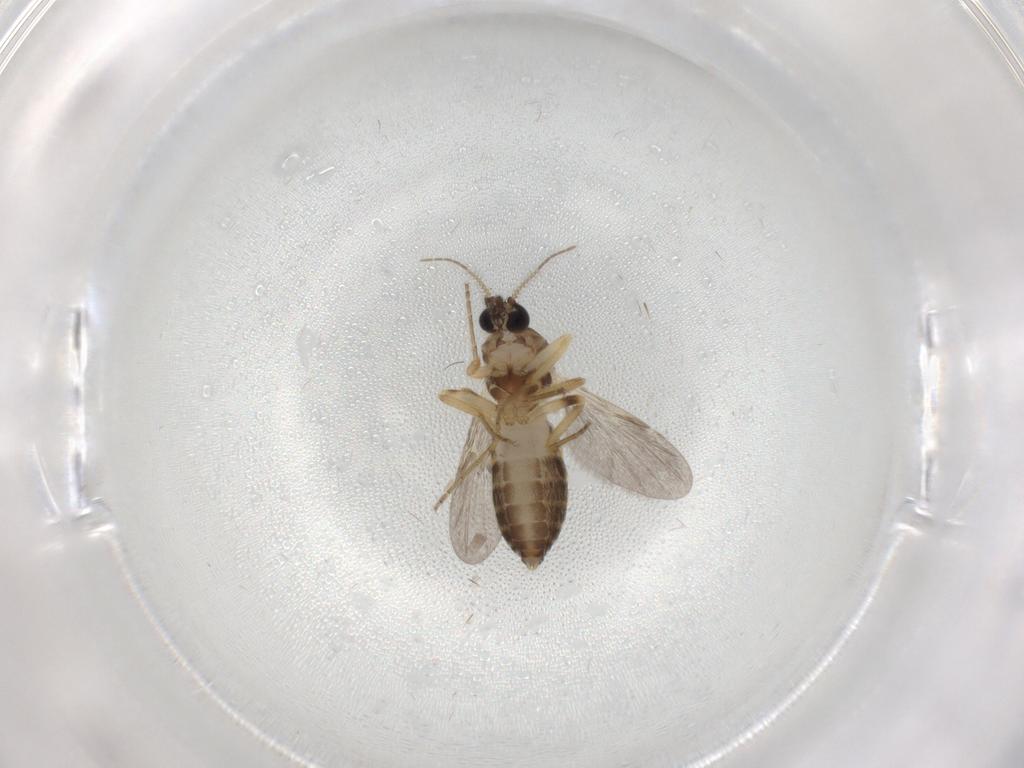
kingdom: Animalia
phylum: Arthropoda
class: Insecta
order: Diptera
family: Ceratopogonidae
